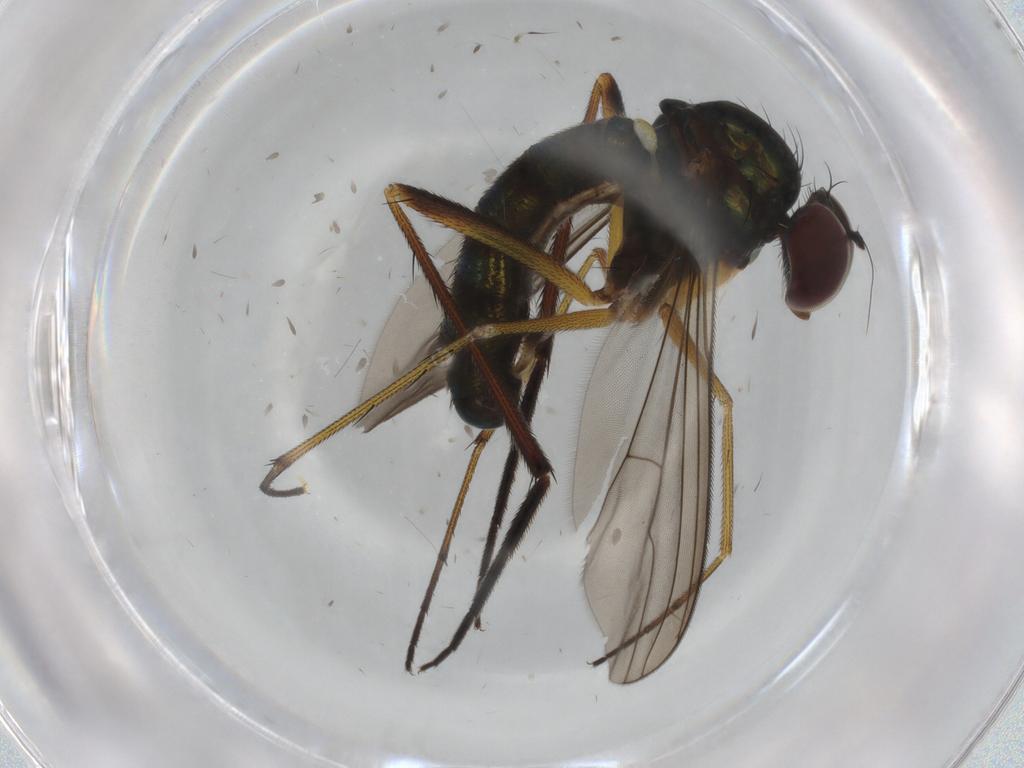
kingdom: Animalia
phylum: Arthropoda
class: Insecta
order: Diptera
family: Dolichopodidae
